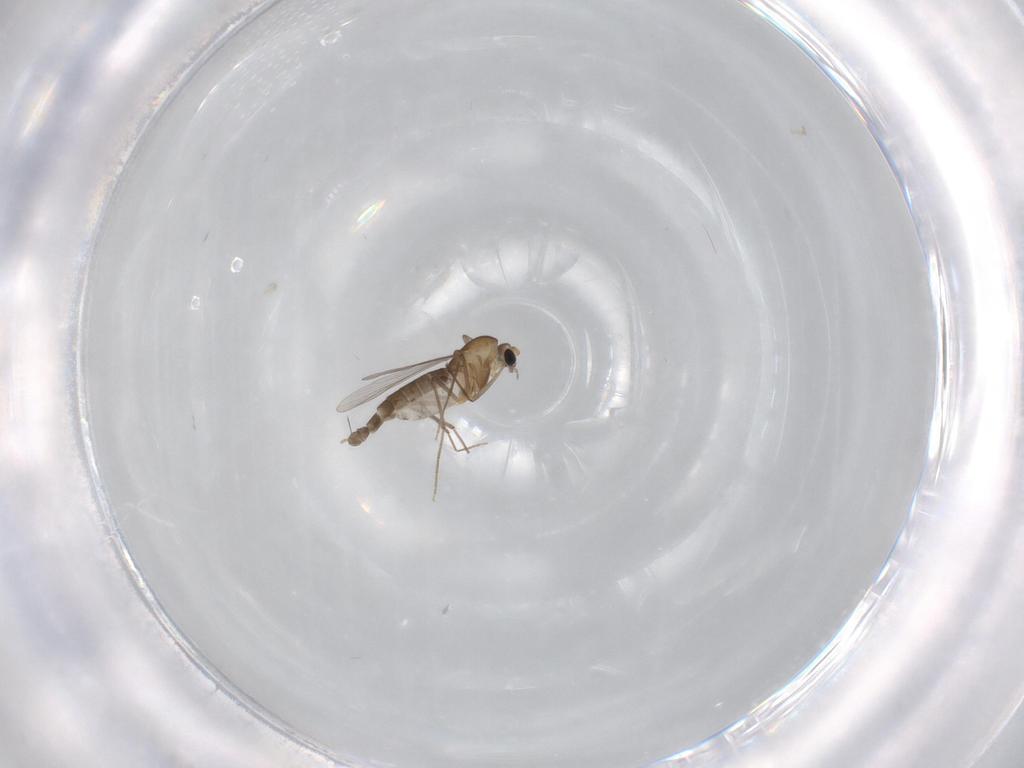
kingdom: Animalia
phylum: Arthropoda
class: Insecta
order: Diptera
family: Chironomidae
